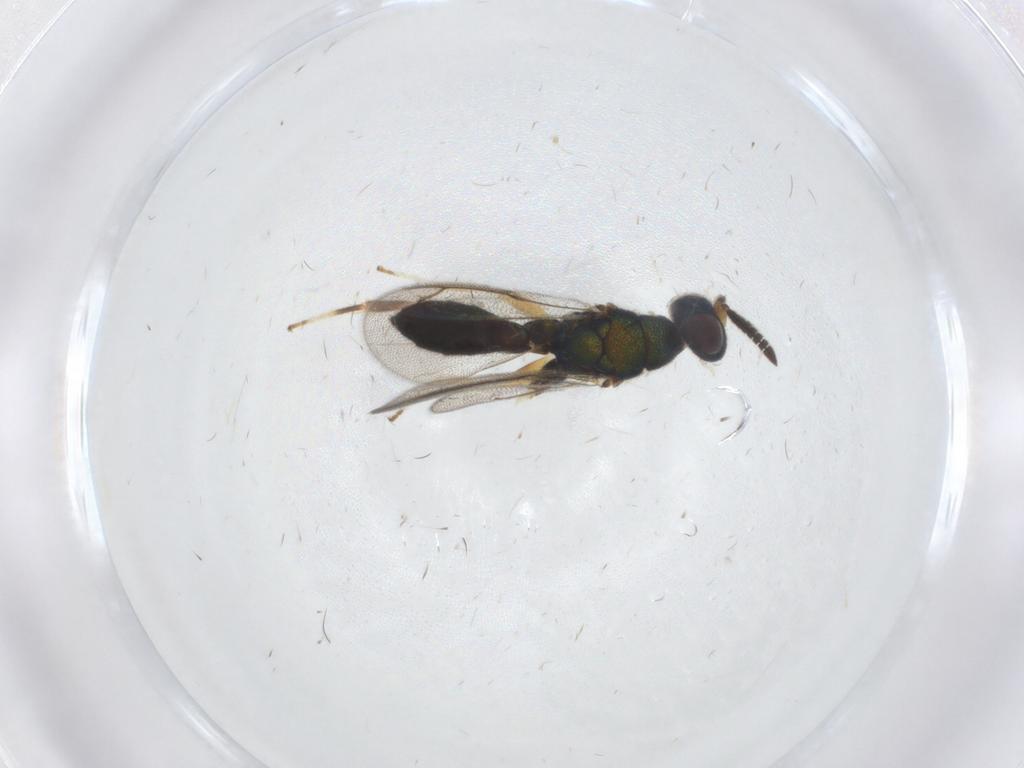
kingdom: Animalia
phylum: Arthropoda
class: Insecta
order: Hymenoptera
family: Cleonyminae
